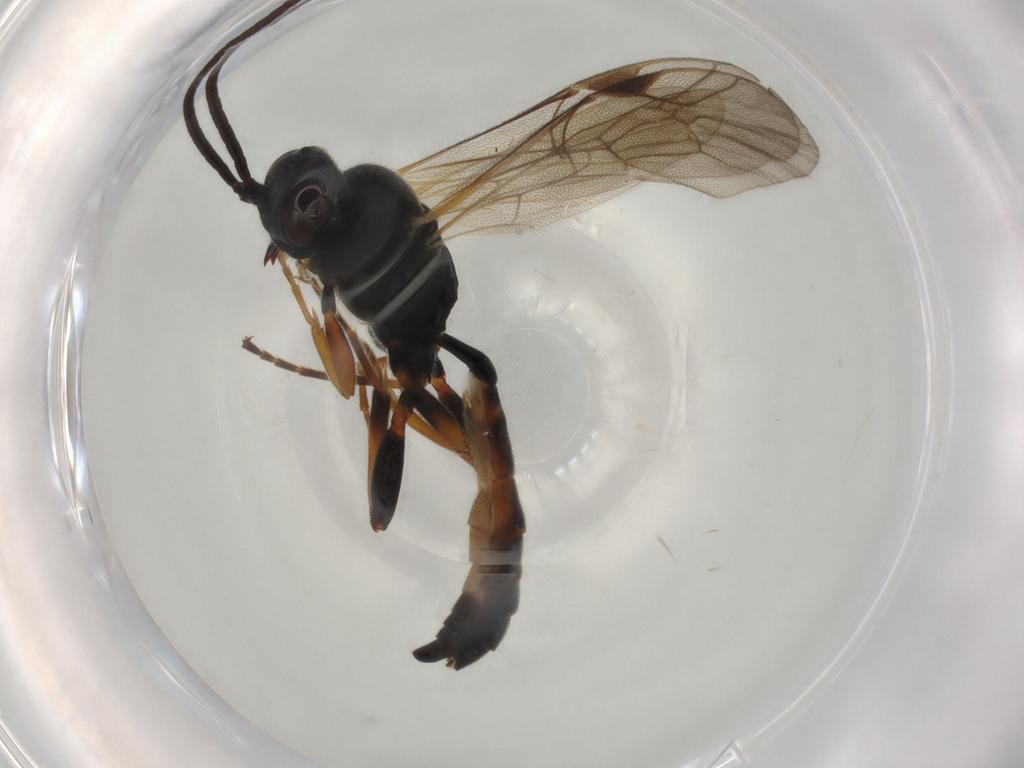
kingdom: Animalia
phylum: Arthropoda
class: Insecta
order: Hymenoptera
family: Ichneumonidae
